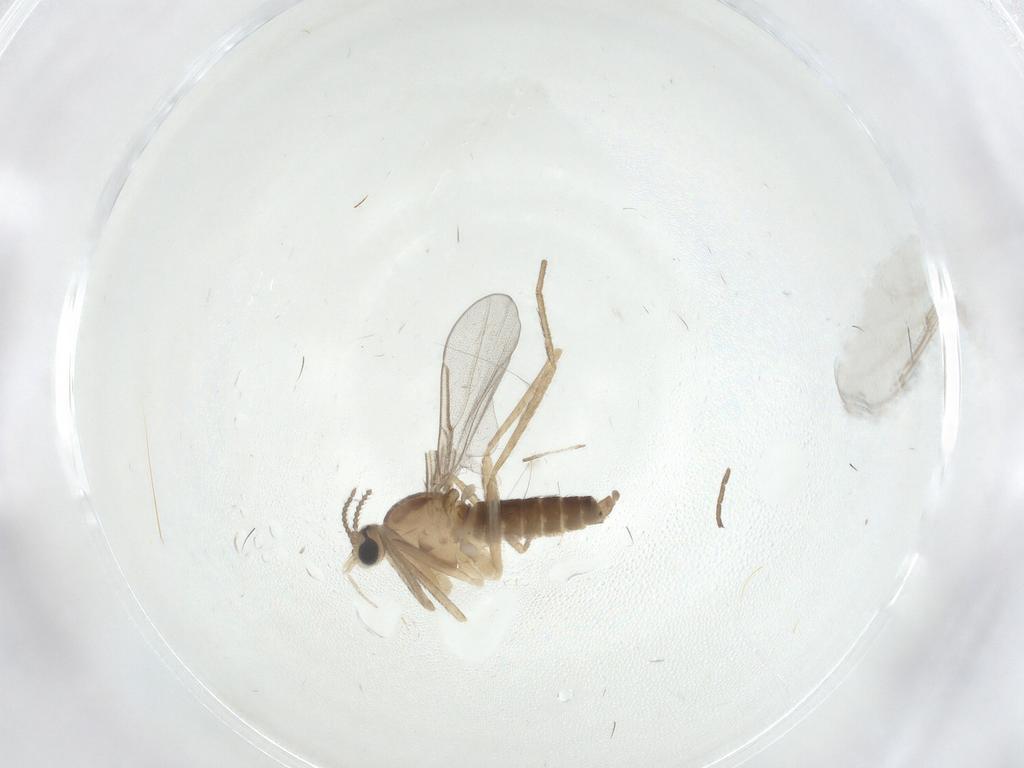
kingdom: Animalia
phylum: Arthropoda
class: Insecta
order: Diptera
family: Cecidomyiidae
